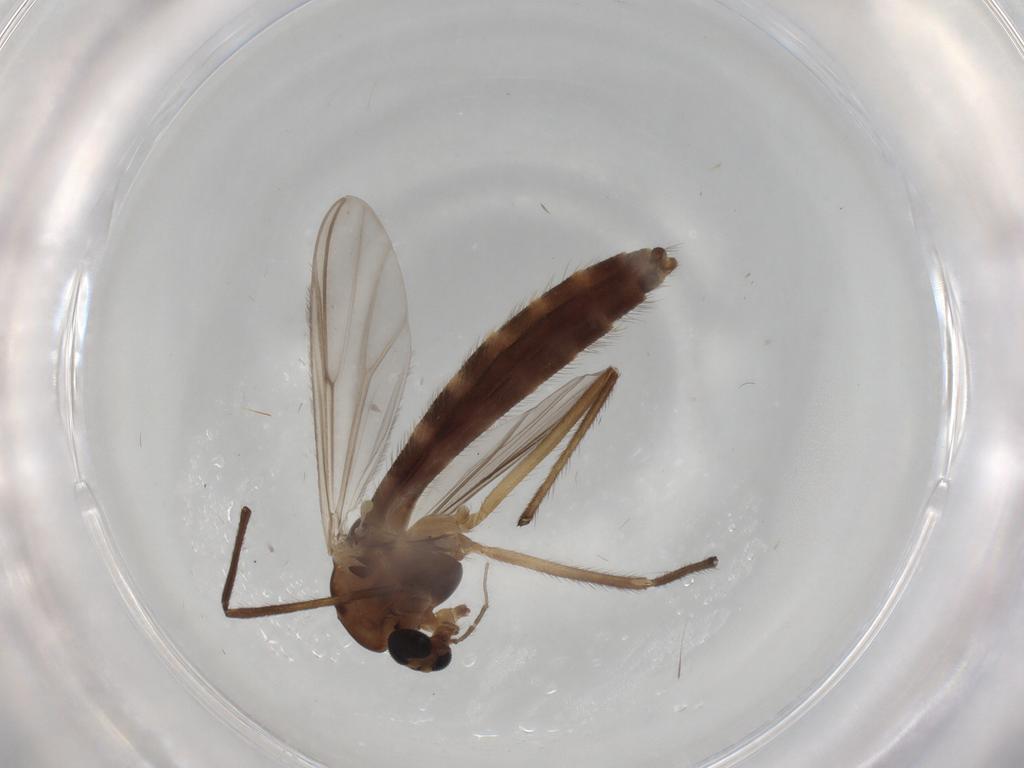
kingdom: Animalia
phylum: Arthropoda
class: Insecta
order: Diptera
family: Chironomidae
